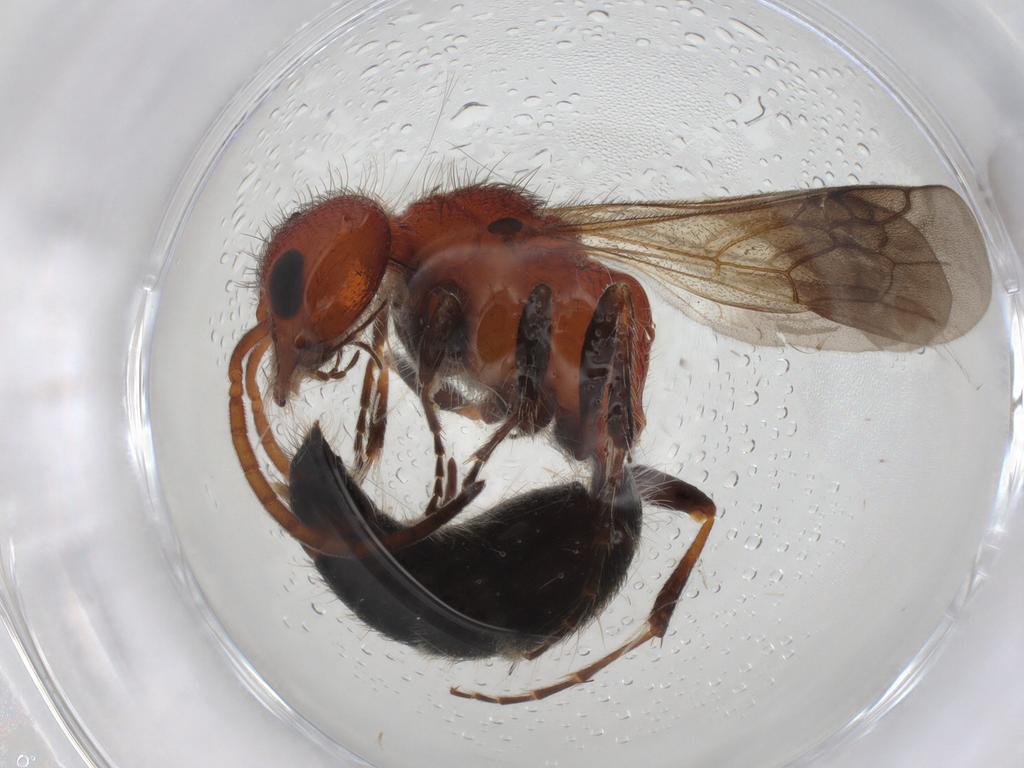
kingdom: Animalia
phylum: Arthropoda
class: Insecta
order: Hymenoptera
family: Ichneumonidae
